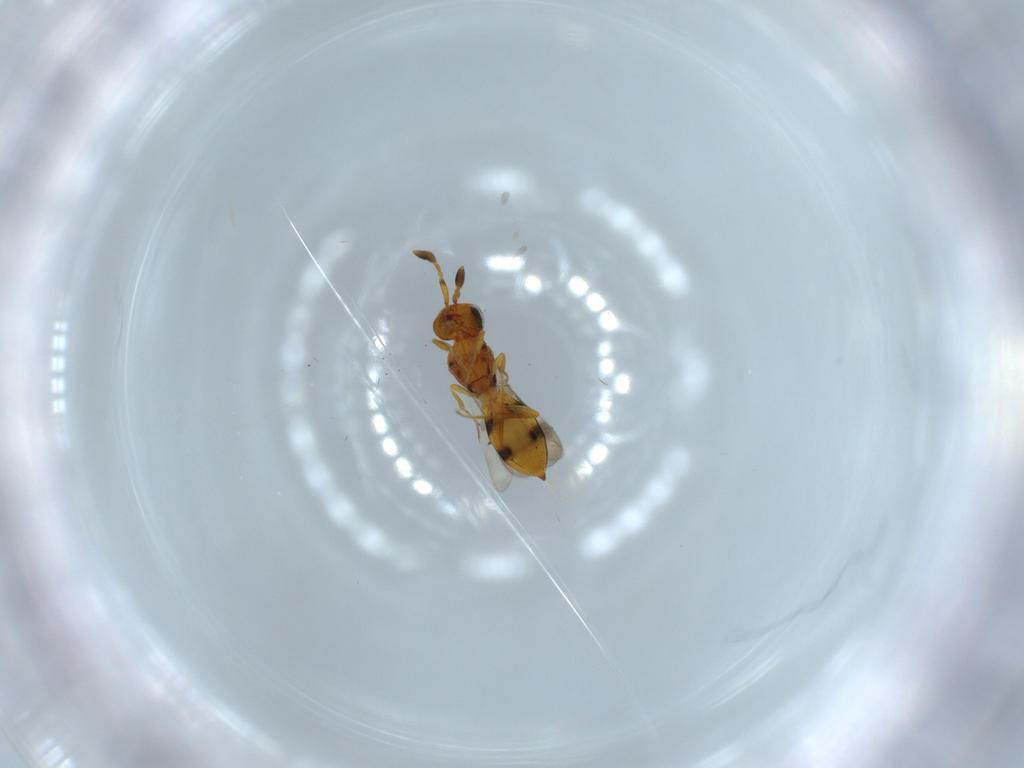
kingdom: Animalia
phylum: Arthropoda
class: Insecta
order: Hymenoptera
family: Scelionidae
